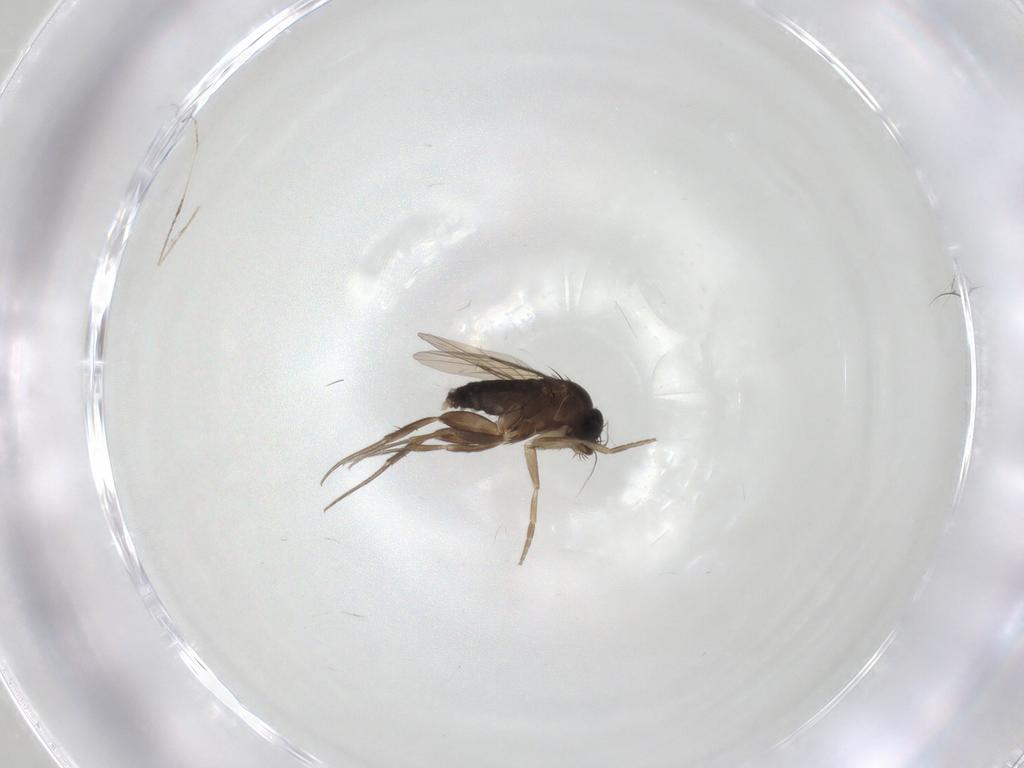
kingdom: Animalia
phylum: Arthropoda
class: Insecta
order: Diptera
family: Phoridae
